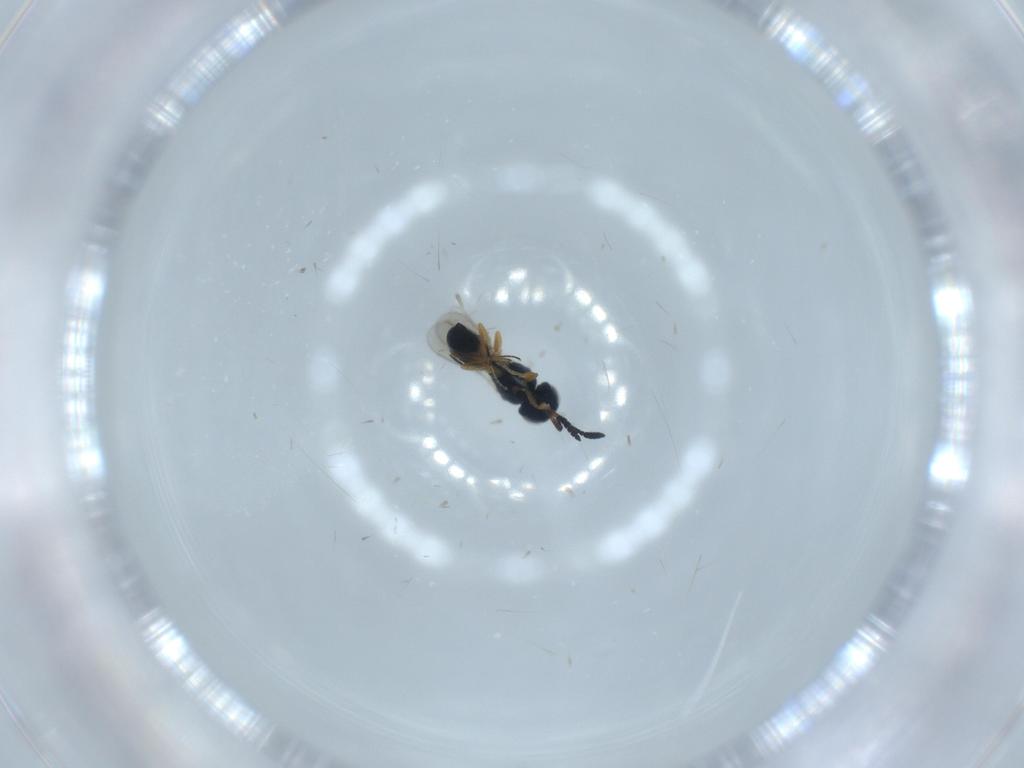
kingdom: Animalia
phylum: Arthropoda
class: Insecta
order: Hymenoptera
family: Scelionidae
